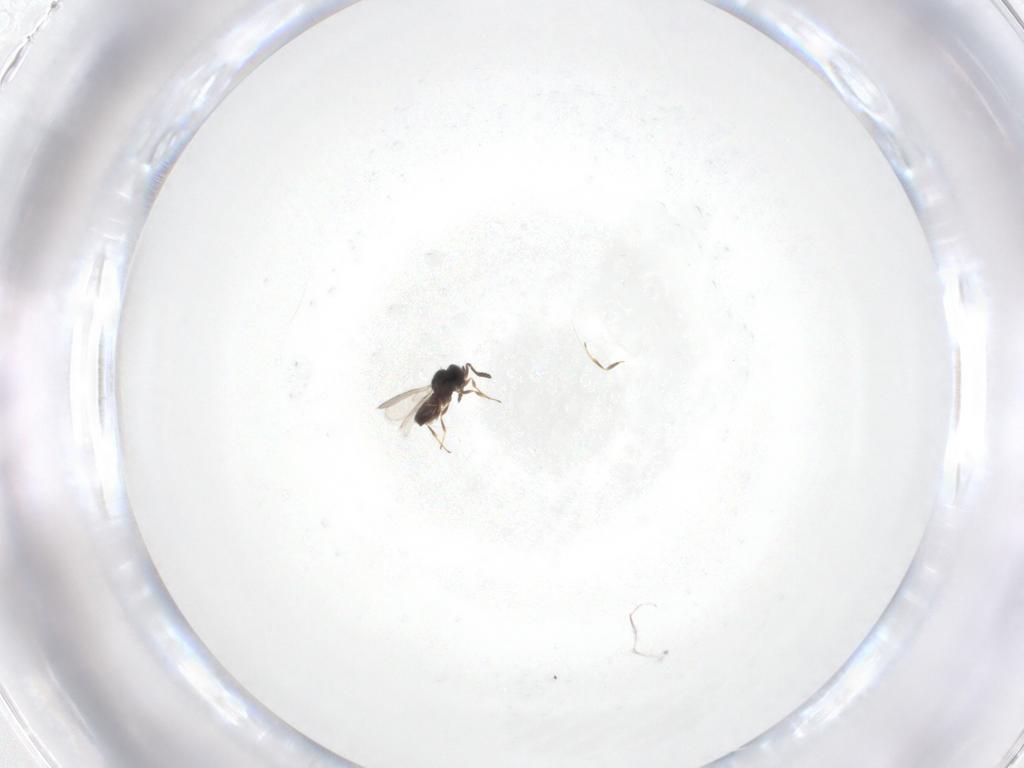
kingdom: Animalia
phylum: Arthropoda
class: Insecta
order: Hymenoptera
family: Scelionidae
